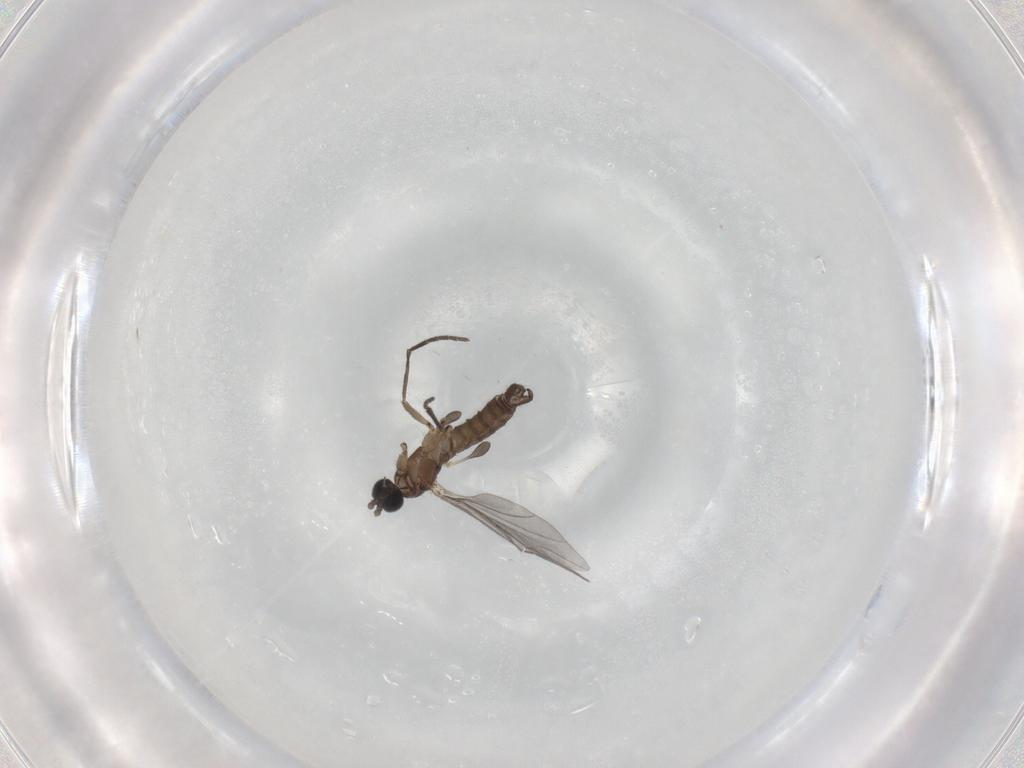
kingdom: Animalia
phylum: Arthropoda
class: Insecta
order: Diptera
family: Sciaridae
